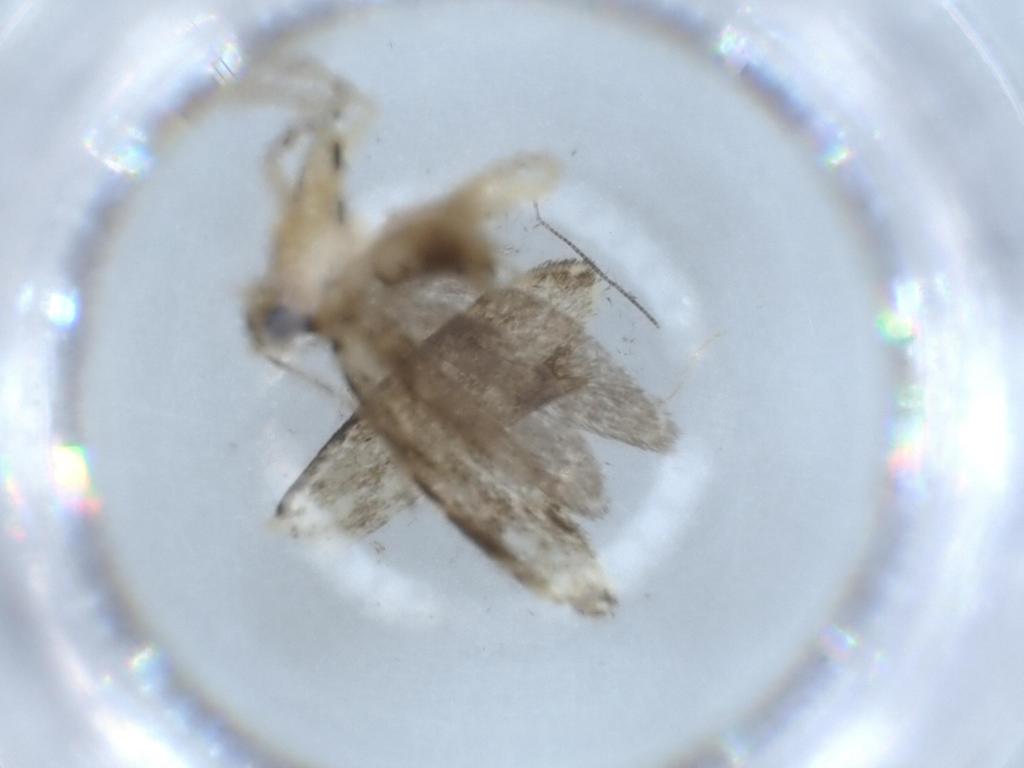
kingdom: Animalia
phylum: Arthropoda
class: Insecta
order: Lepidoptera
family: Tineidae
